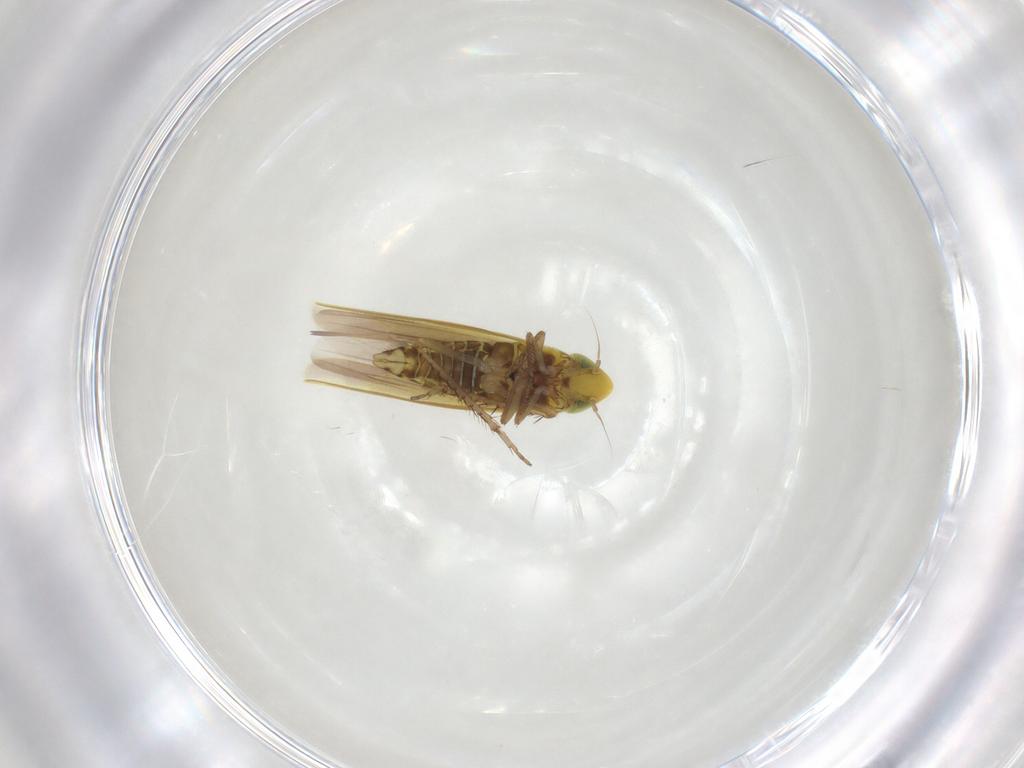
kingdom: Animalia
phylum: Arthropoda
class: Insecta
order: Hemiptera
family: Cicadellidae
